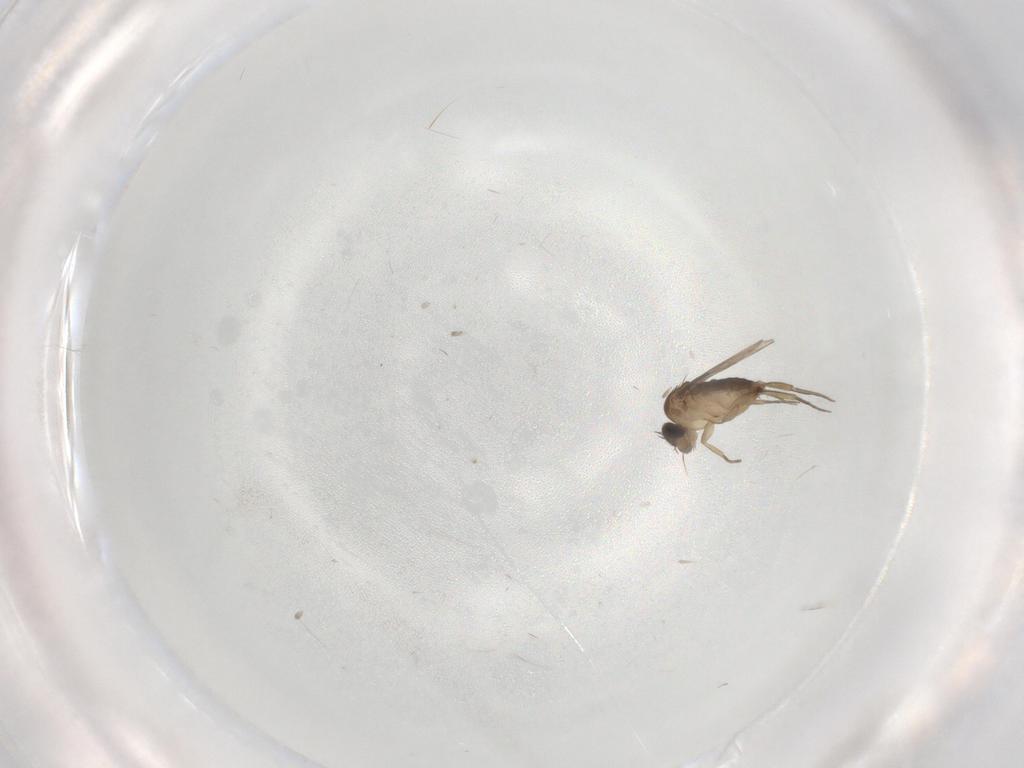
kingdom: Animalia
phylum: Arthropoda
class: Insecta
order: Diptera
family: Phoridae
